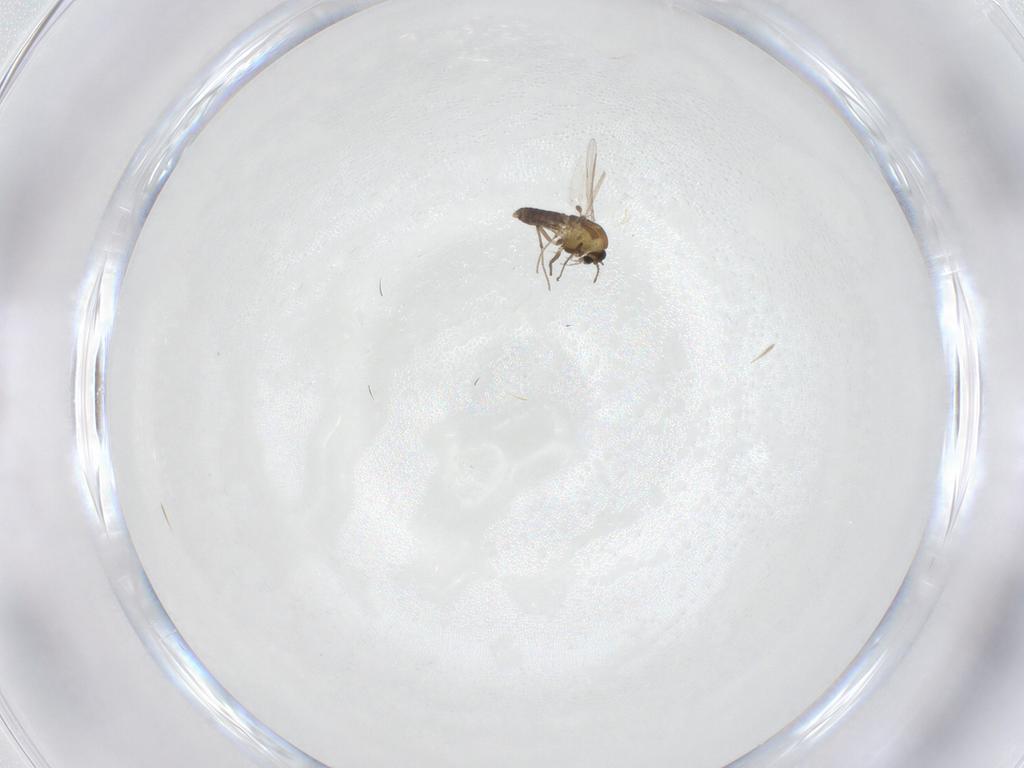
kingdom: Animalia
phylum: Arthropoda
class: Insecta
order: Diptera
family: Chironomidae
